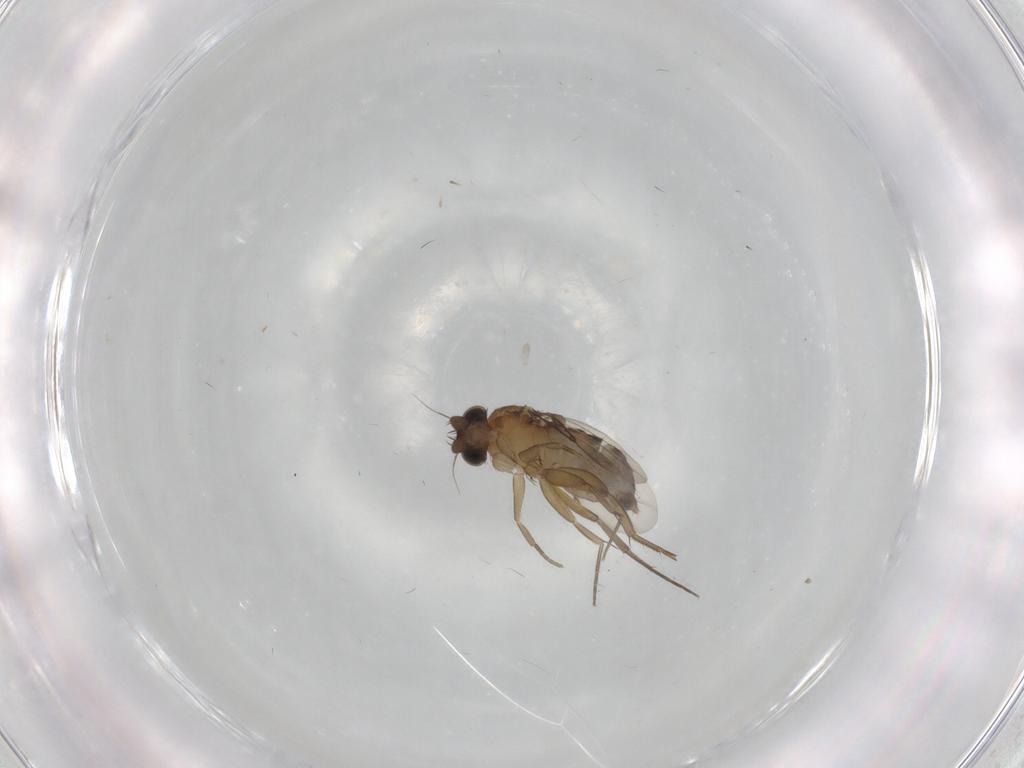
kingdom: Animalia
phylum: Arthropoda
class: Insecta
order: Diptera
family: Phoridae
